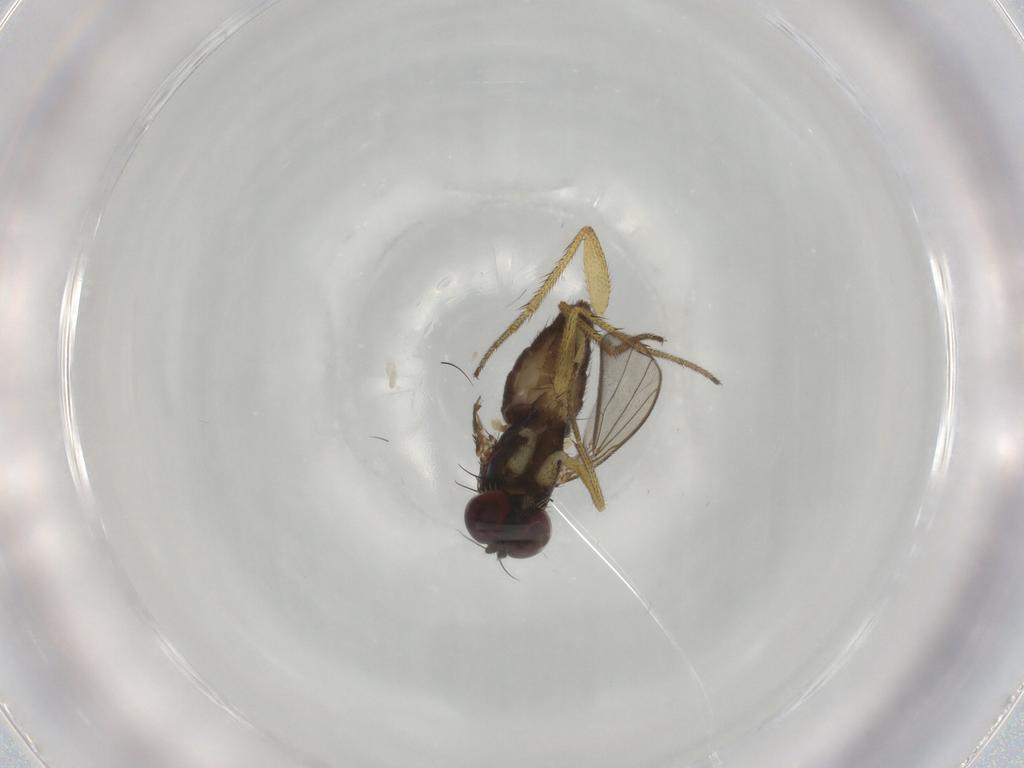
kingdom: Animalia
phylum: Arthropoda
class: Insecta
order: Diptera
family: Dolichopodidae
